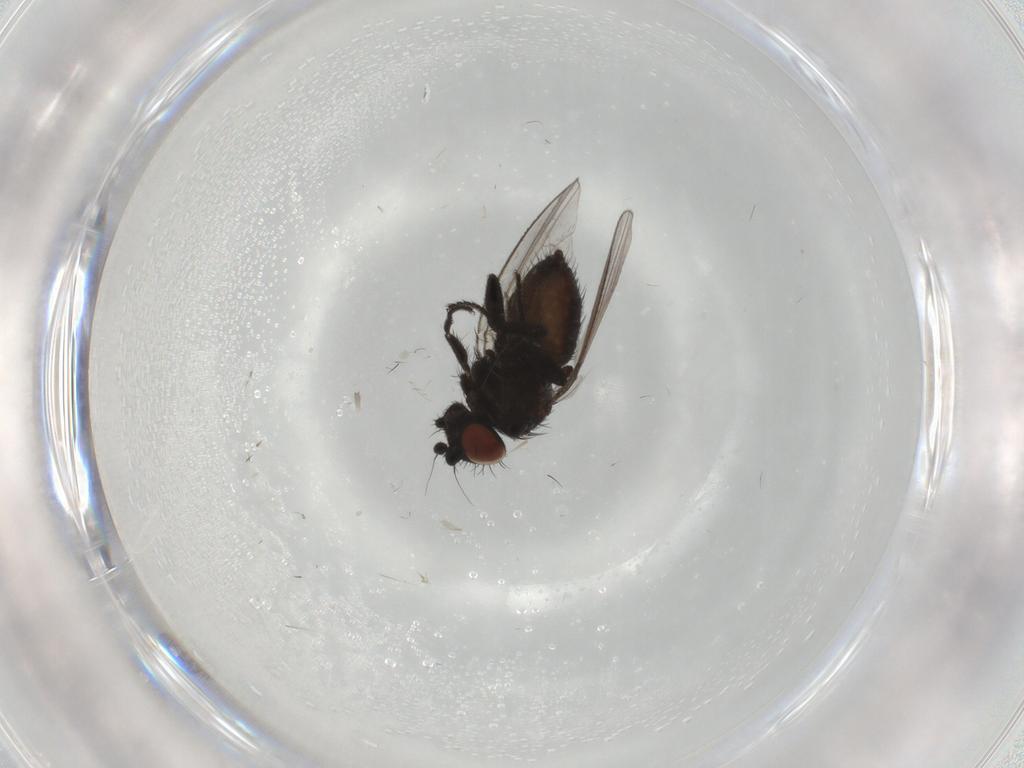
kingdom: Animalia
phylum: Arthropoda
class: Insecta
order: Diptera
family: Milichiidae
